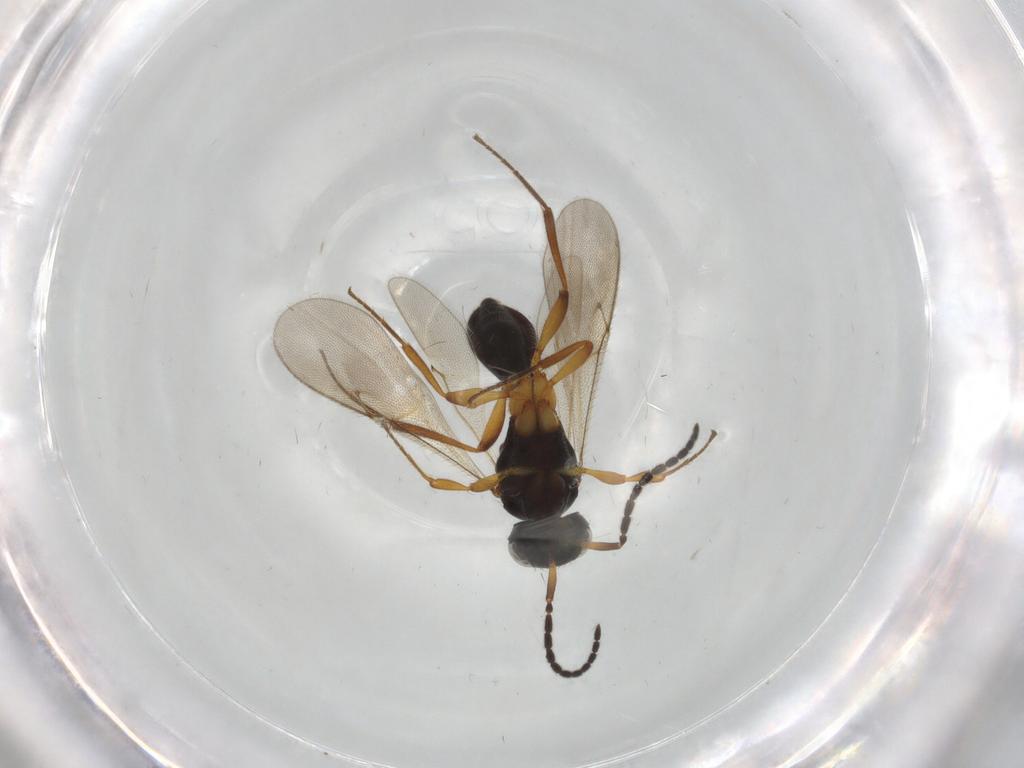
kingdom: Animalia
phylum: Arthropoda
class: Insecta
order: Hymenoptera
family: Scelionidae
